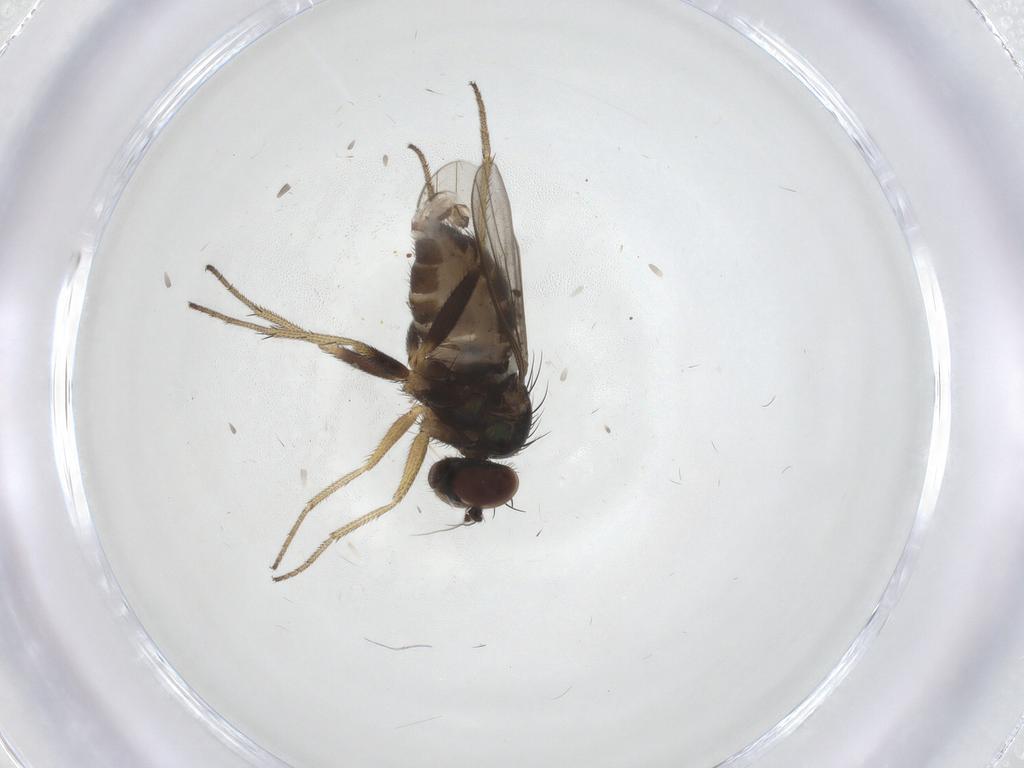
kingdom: Animalia
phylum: Arthropoda
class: Insecta
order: Diptera
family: Dolichopodidae
